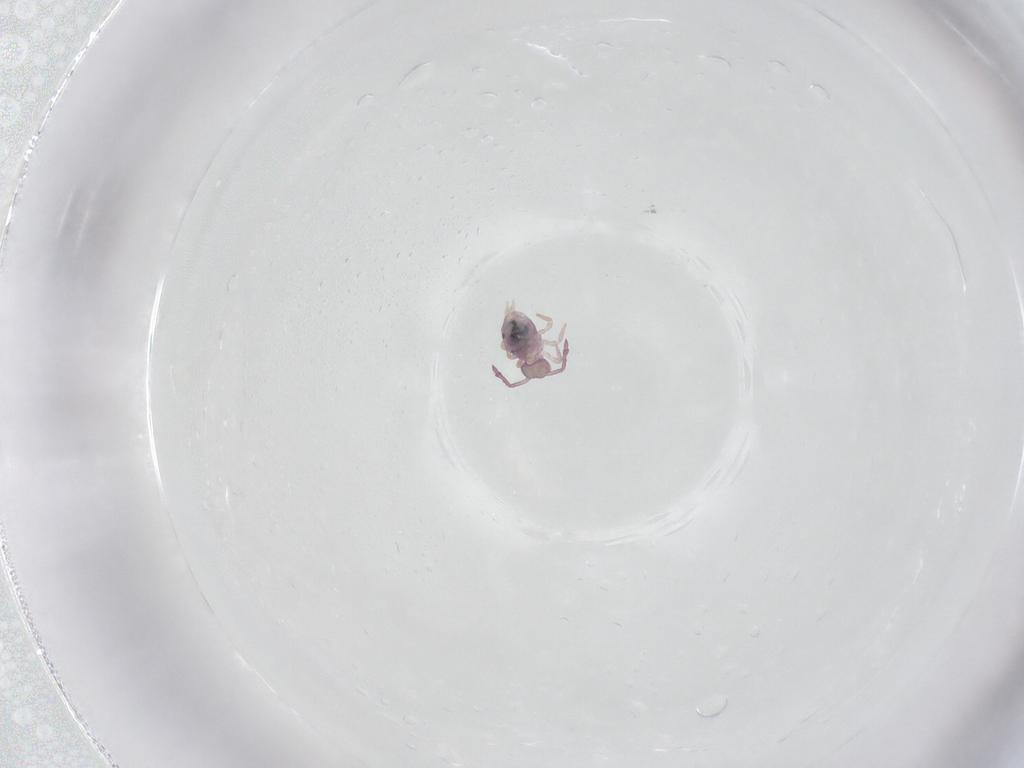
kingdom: Animalia
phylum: Arthropoda
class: Collembola
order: Symphypleona
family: Dicyrtomidae
